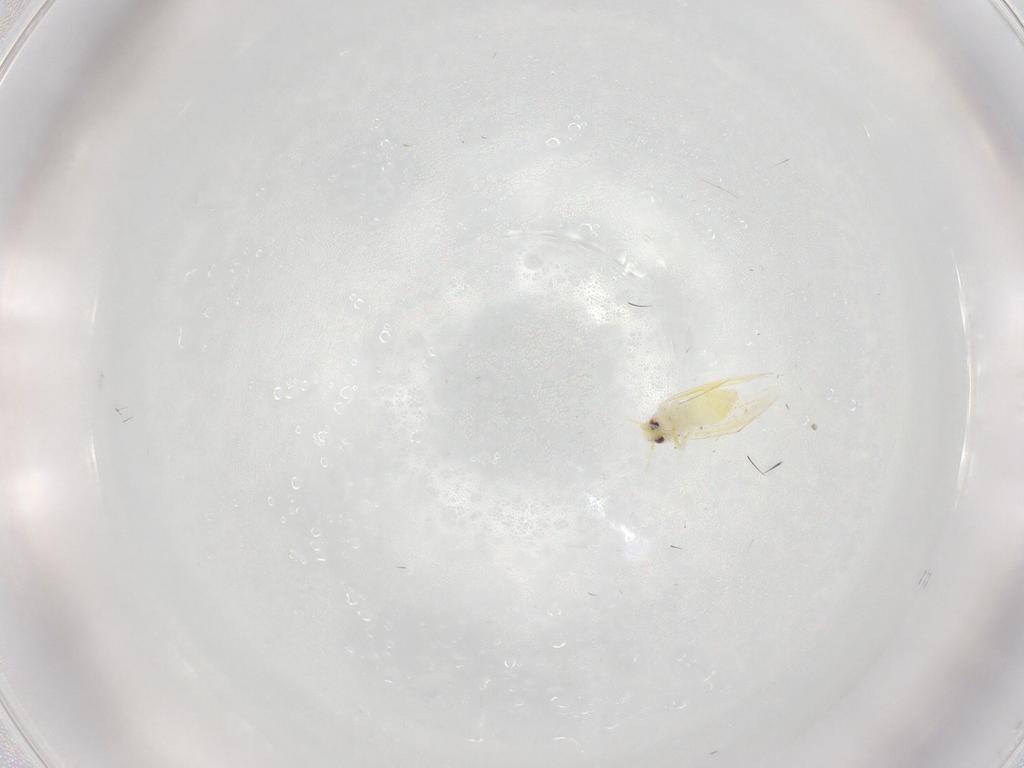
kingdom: Animalia
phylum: Arthropoda
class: Insecta
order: Hemiptera
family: Aleyrodidae
